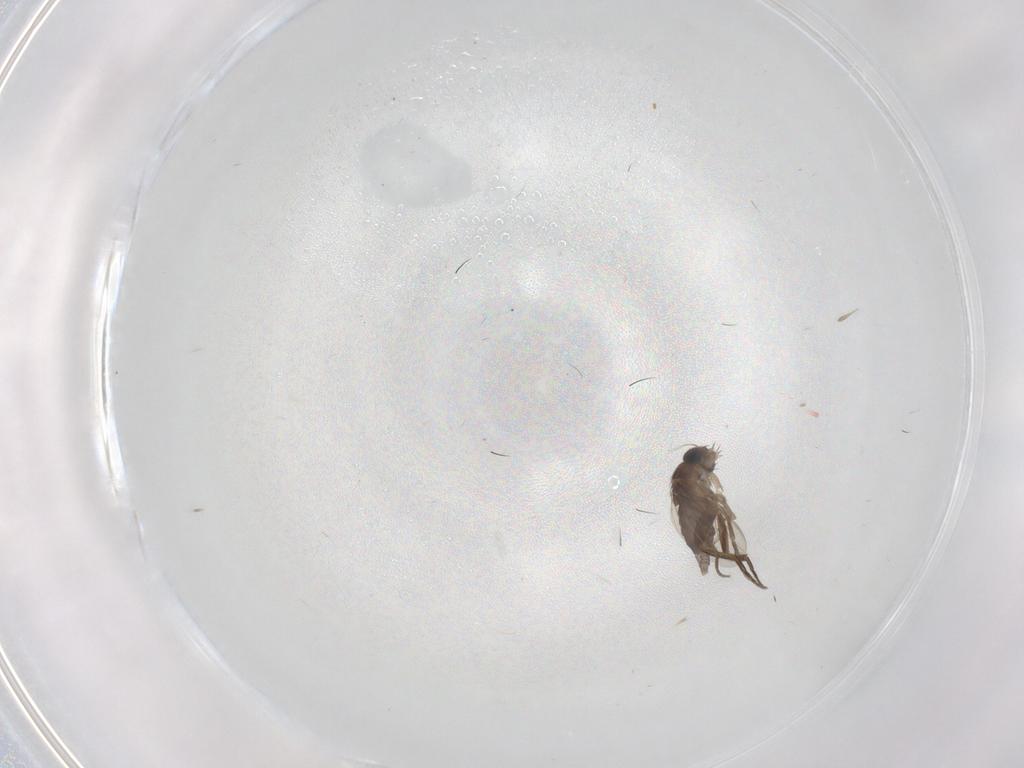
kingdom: Animalia
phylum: Arthropoda
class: Insecta
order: Diptera
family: Phoridae
